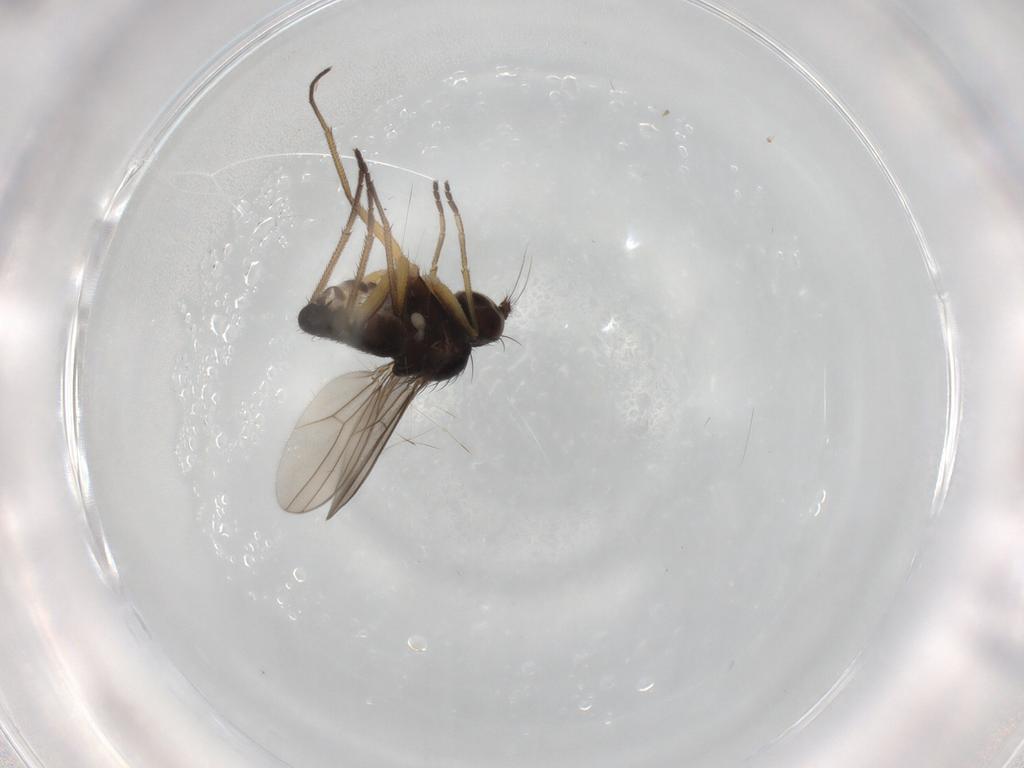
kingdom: Animalia
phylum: Arthropoda
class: Insecta
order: Diptera
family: Dolichopodidae
